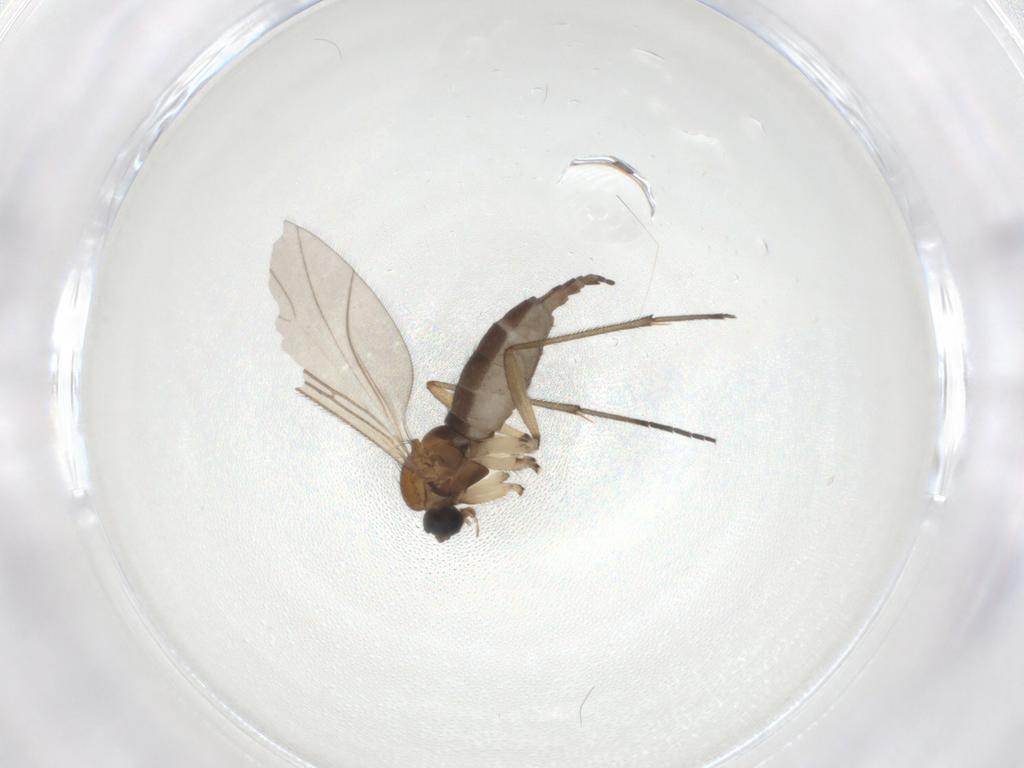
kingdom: Animalia
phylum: Arthropoda
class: Insecta
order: Diptera
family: Sciaridae
